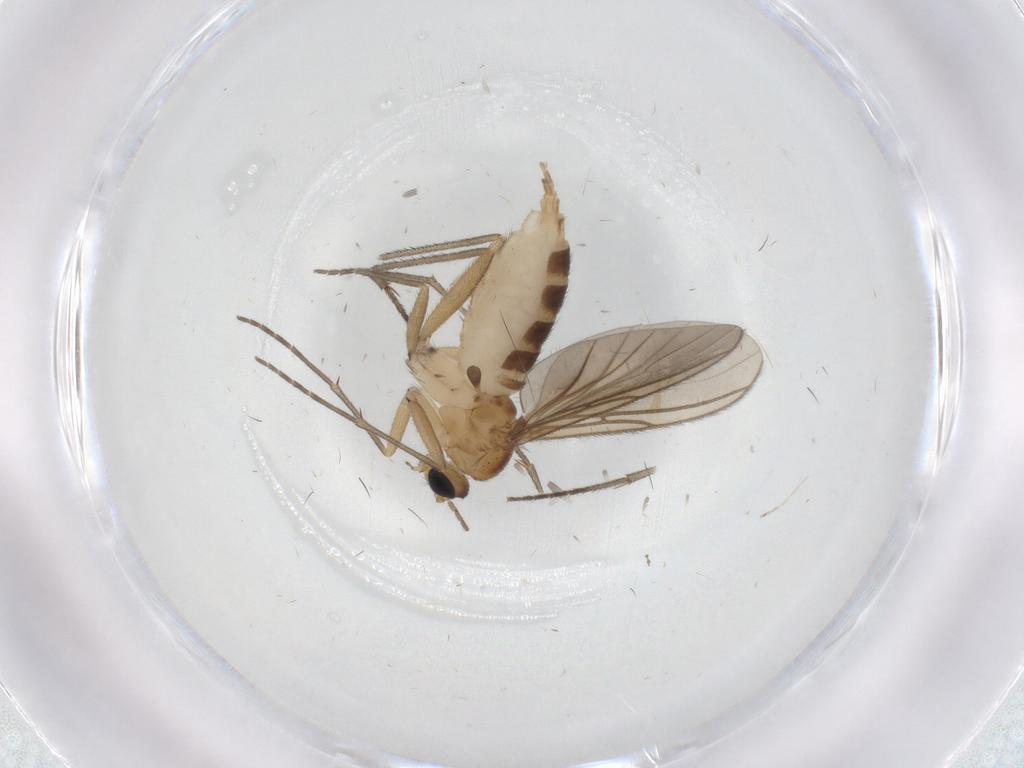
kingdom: Animalia
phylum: Arthropoda
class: Insecta
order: Diptera
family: Sciaridae
